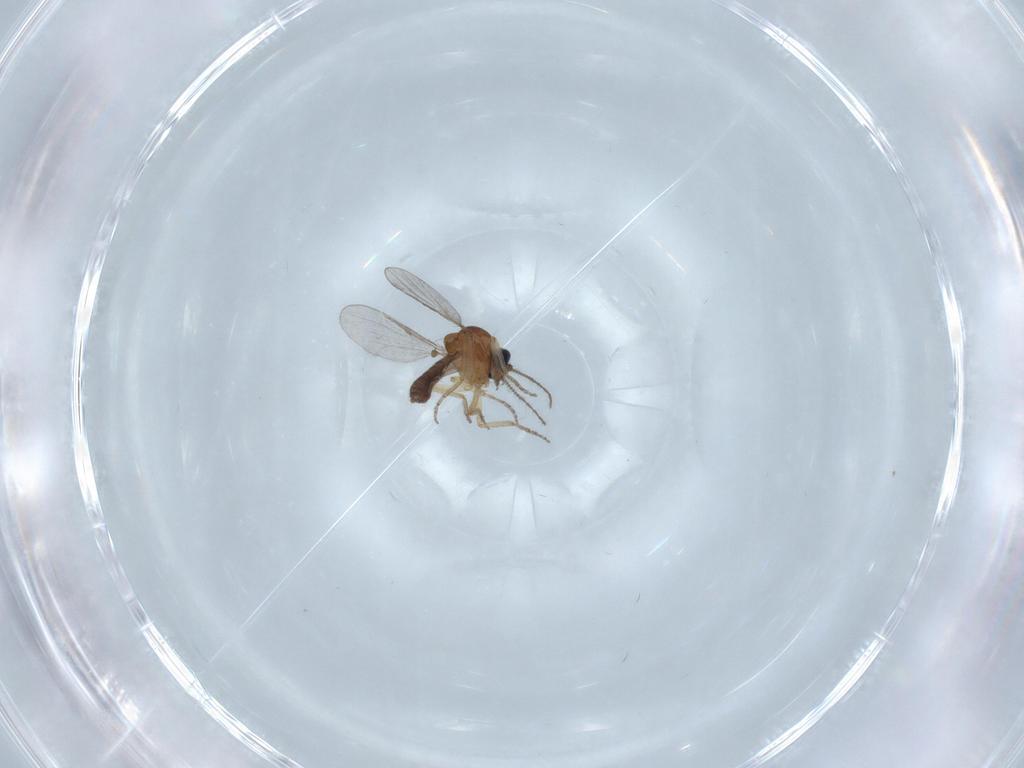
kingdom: Animalia
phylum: Arthropoda
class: Insecta
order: Diptera
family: Ceratopogonidae
